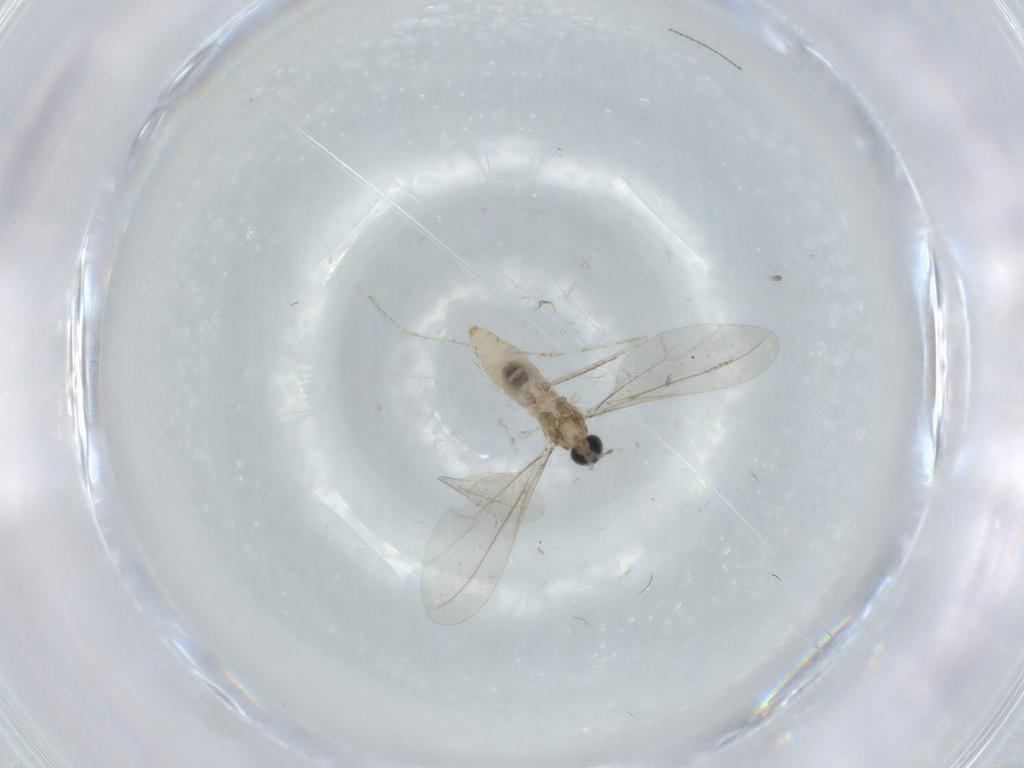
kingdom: Animalia
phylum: Arthropoda
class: Insecta
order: Diptera
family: Cecidomyiidae
